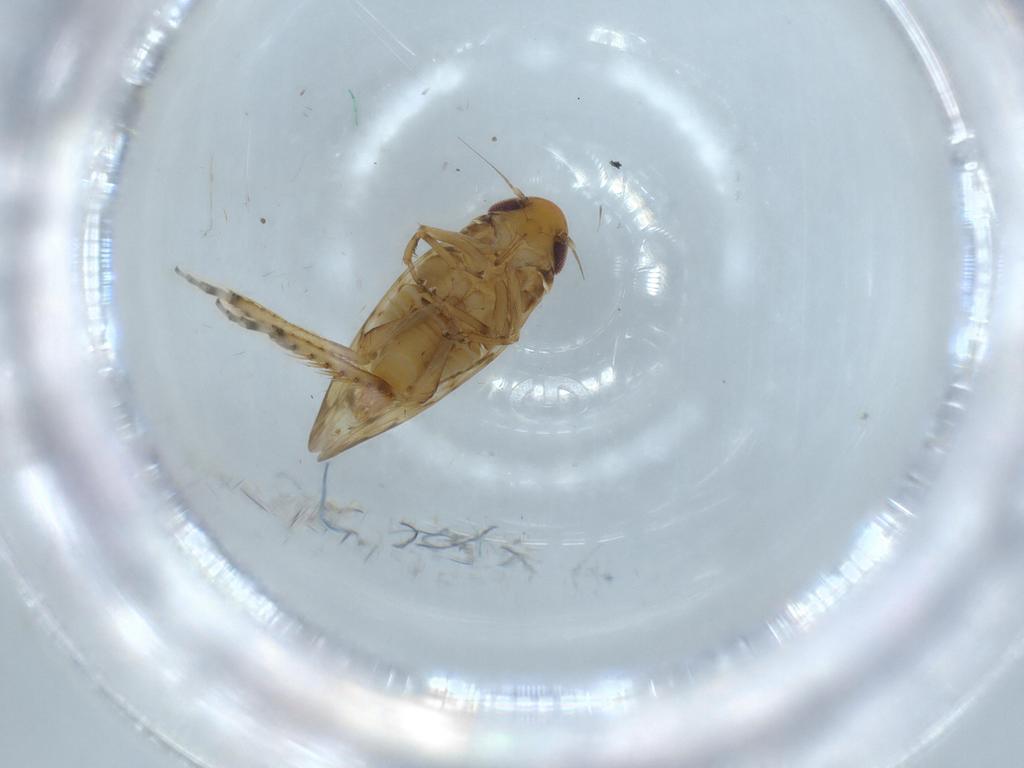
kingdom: Animalia
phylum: Arthropoda
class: Insecta
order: Hemiptera
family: Cicadellidae
